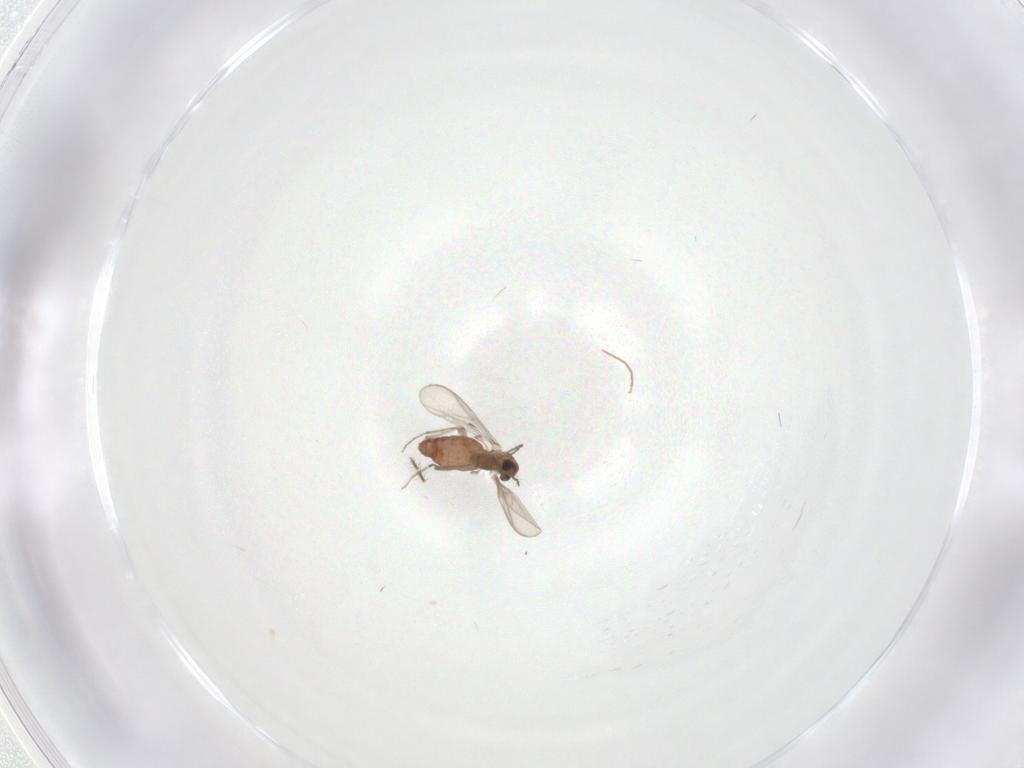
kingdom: Animalia
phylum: Arthropoda
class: Insecta
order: Diptera
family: Chironomidae
